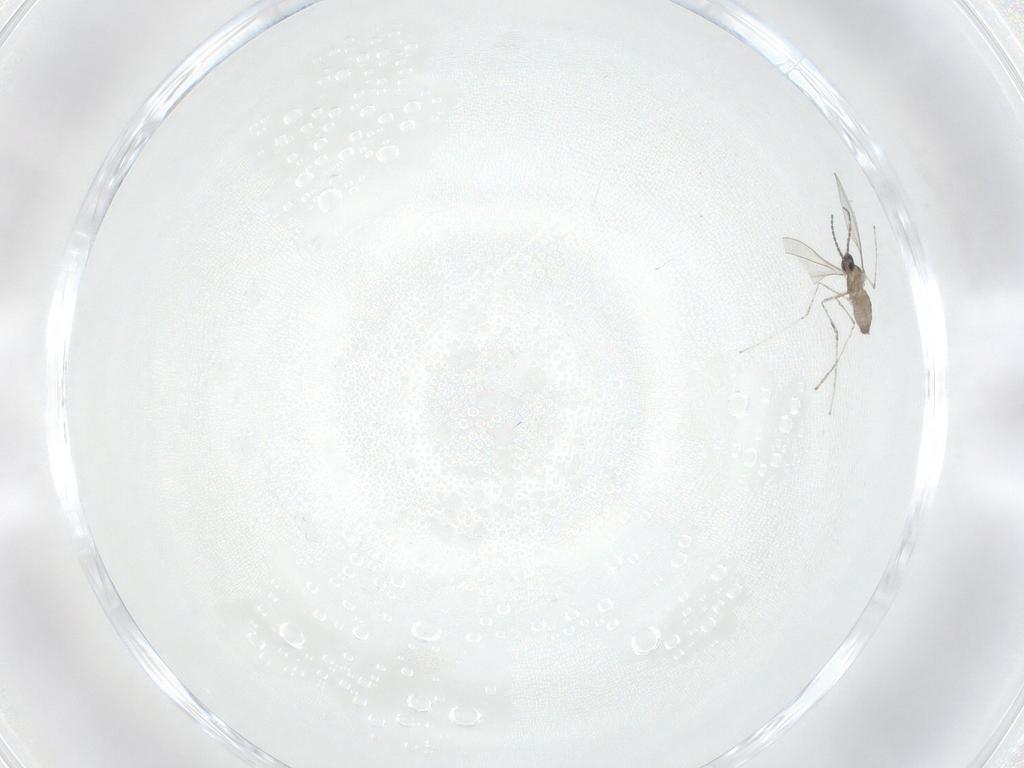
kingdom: Animalia
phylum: Arthropoda
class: Insecta
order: Diptera
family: Cecidomyiidae
